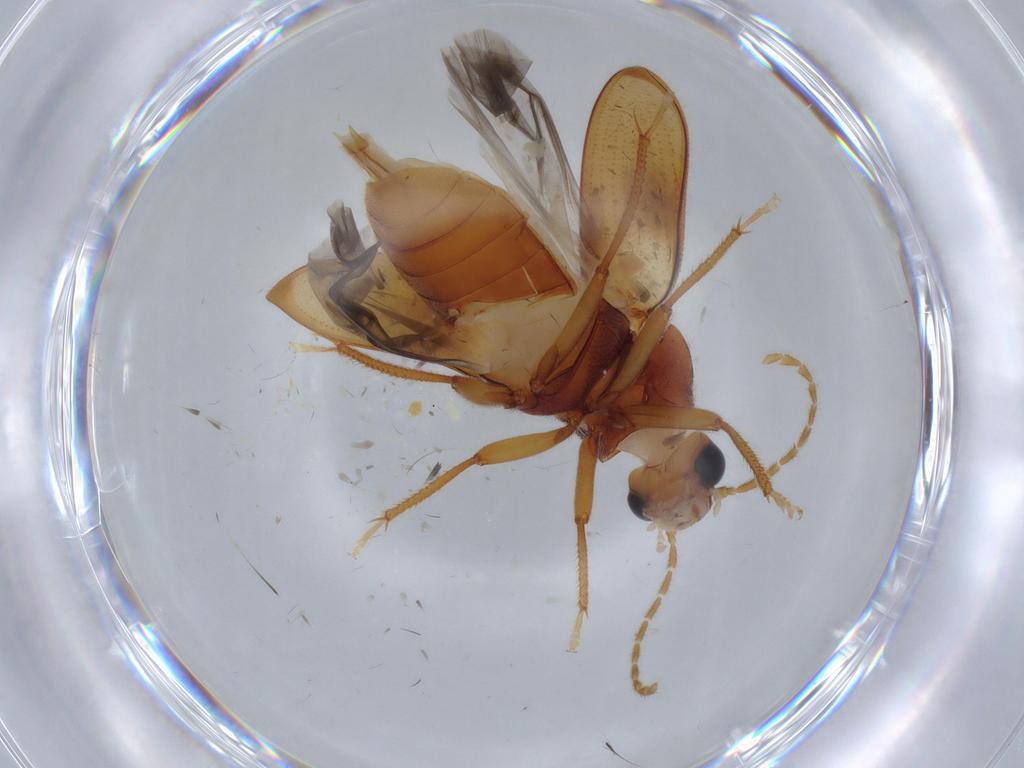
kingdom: Animalia
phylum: Arthropoda
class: Insecta
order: Coleoptera
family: Ptilodactylidae
